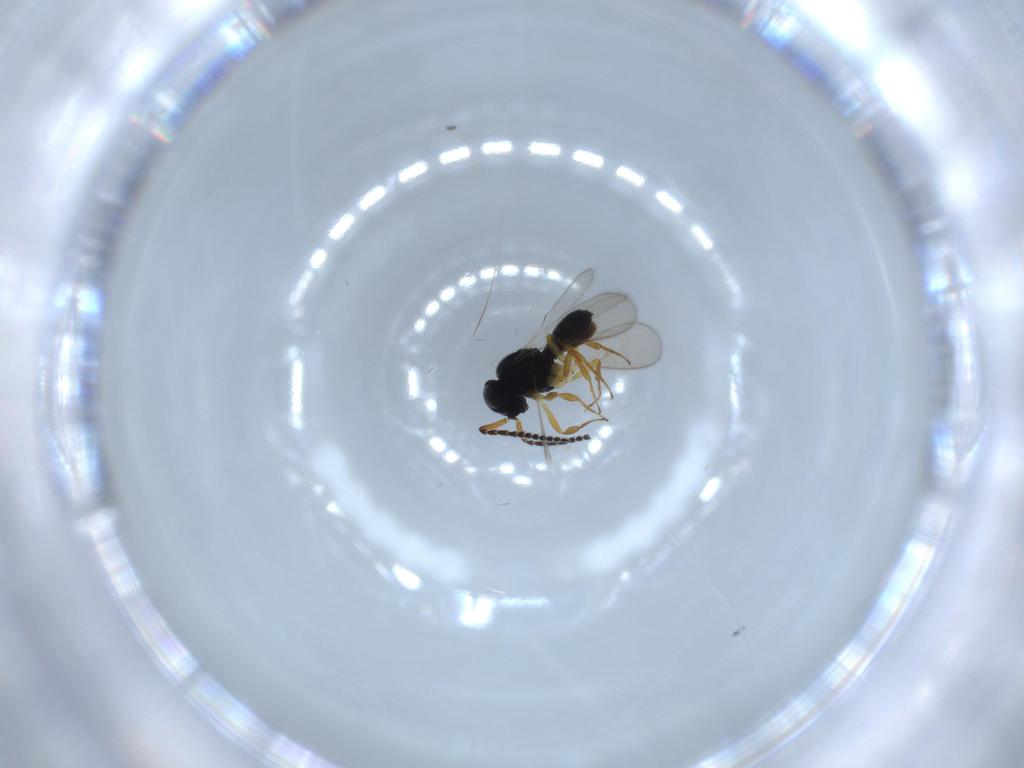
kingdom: Animalia
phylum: Arthropoda
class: Insecta
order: Hymenoptera
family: Scelionidae
